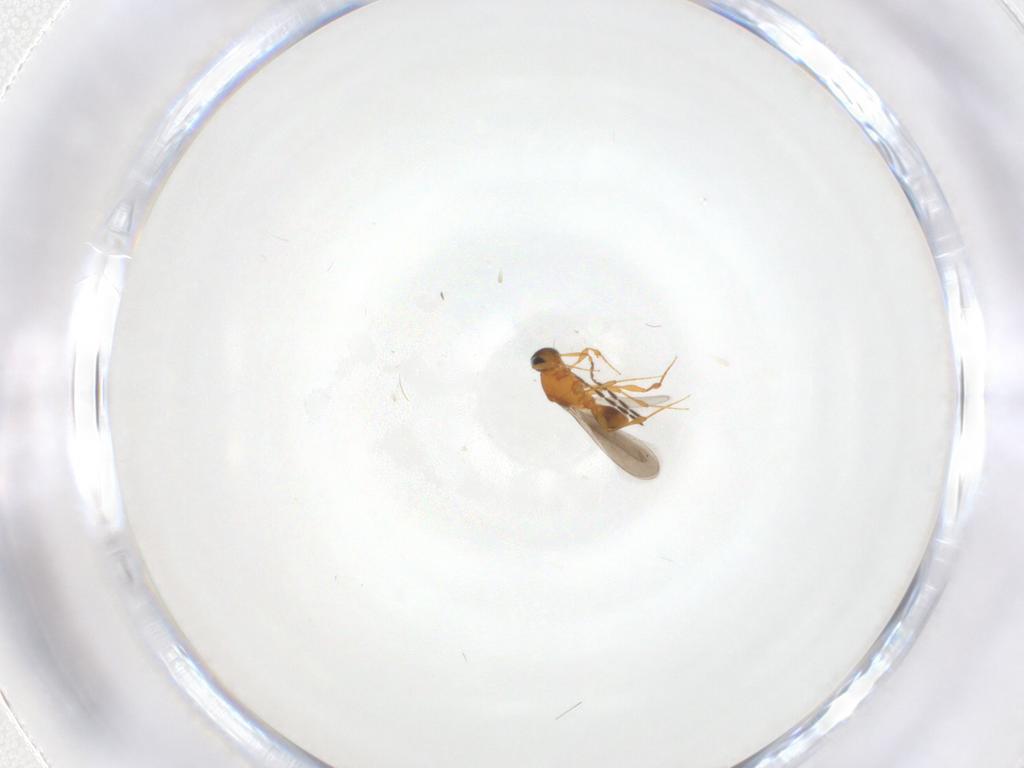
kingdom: Animalia
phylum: Arthropoda
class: Insecta
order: Hymenoptera
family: Platygastridae
